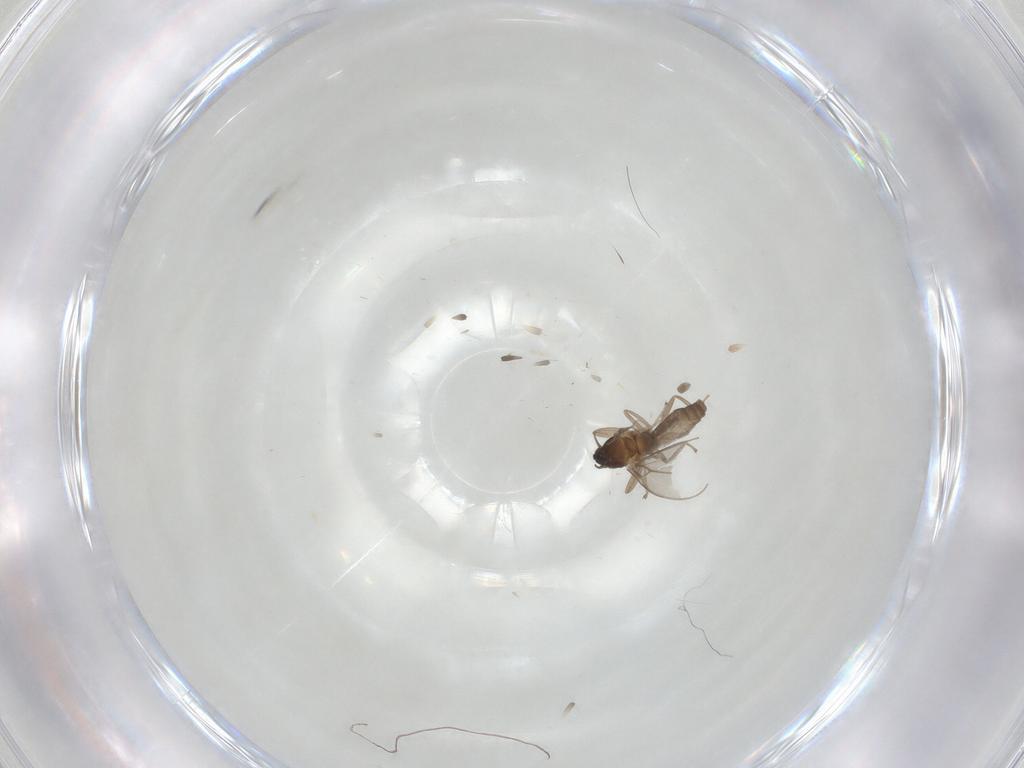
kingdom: Animalia
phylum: Arthropoda
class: Insecta
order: Diptera
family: Cecidomyiidae
